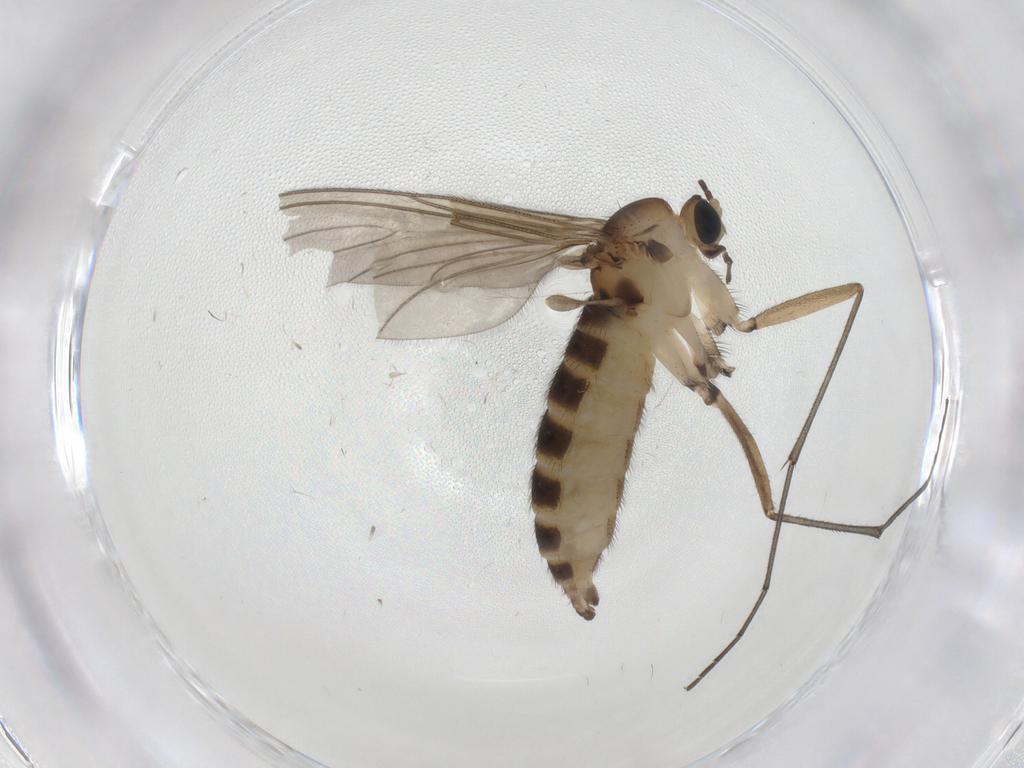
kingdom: Animalia
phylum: Arthropoda
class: Insecta
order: Diptera
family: Sciaridae
